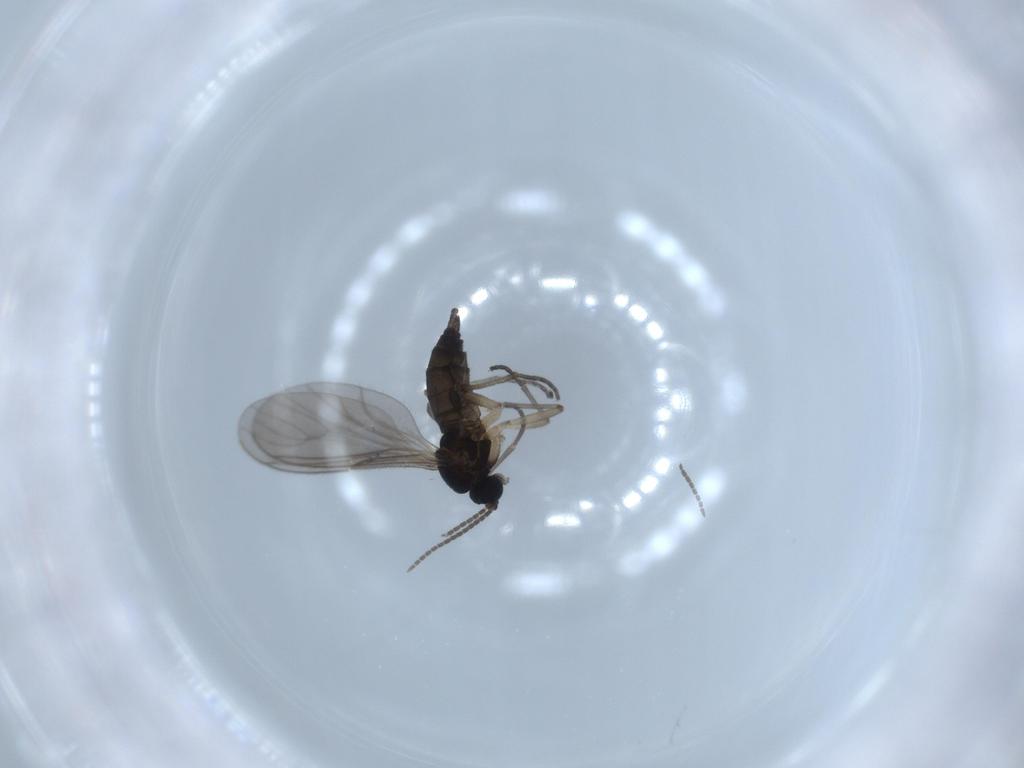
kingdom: Animalia
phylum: Arthropoda
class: Insecta
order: Diptera
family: Sciaridae
